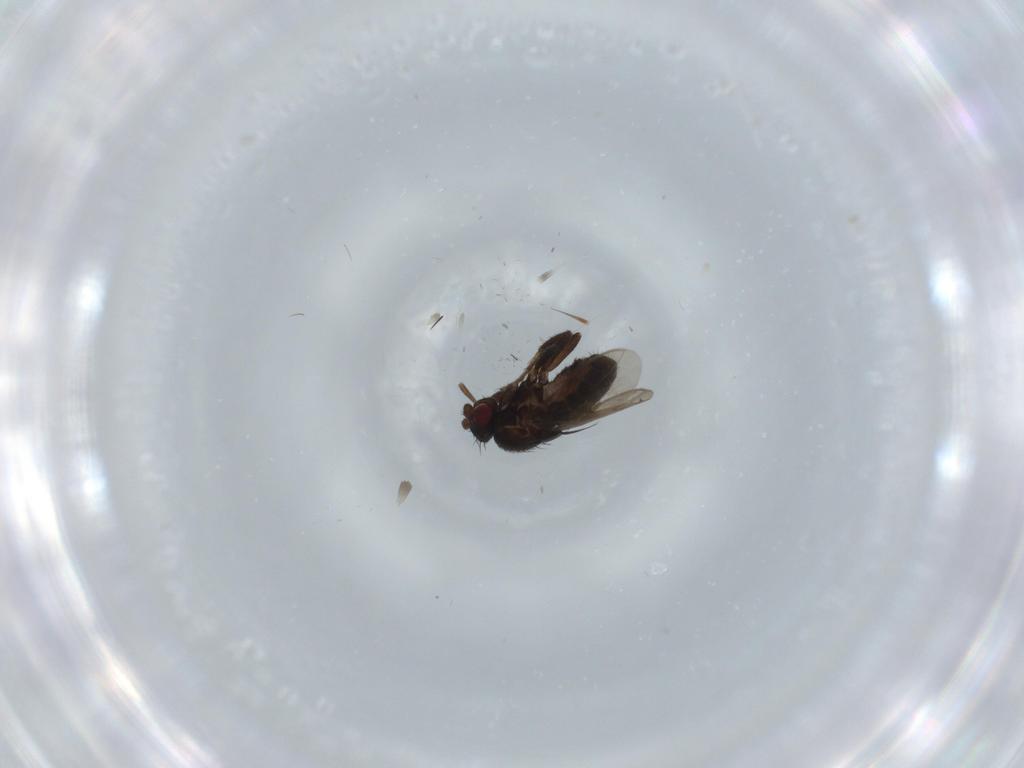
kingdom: Animalia
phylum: Arthropoda
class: Insecta
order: Diptera
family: Sphaeroceridae
